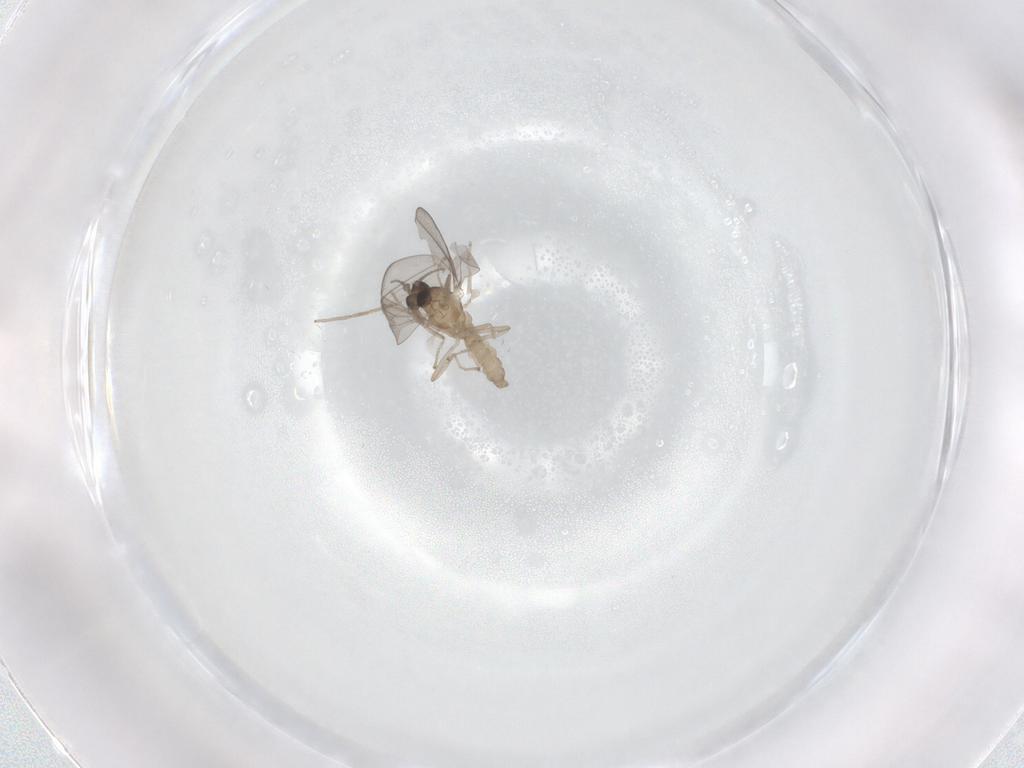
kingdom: Animalia
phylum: Arthropoda
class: Insecta
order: Diptera
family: Cecidomyiidae
